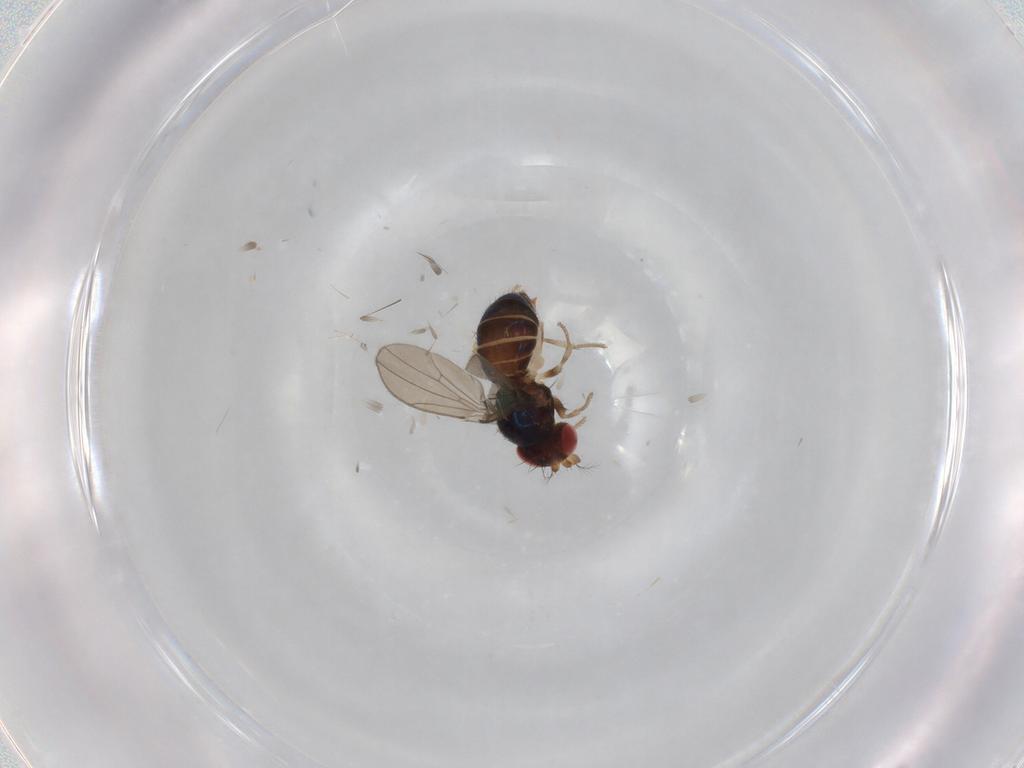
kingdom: Animalia
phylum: Arthropoda
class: Insecta
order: Diptera
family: Drosophilidae
